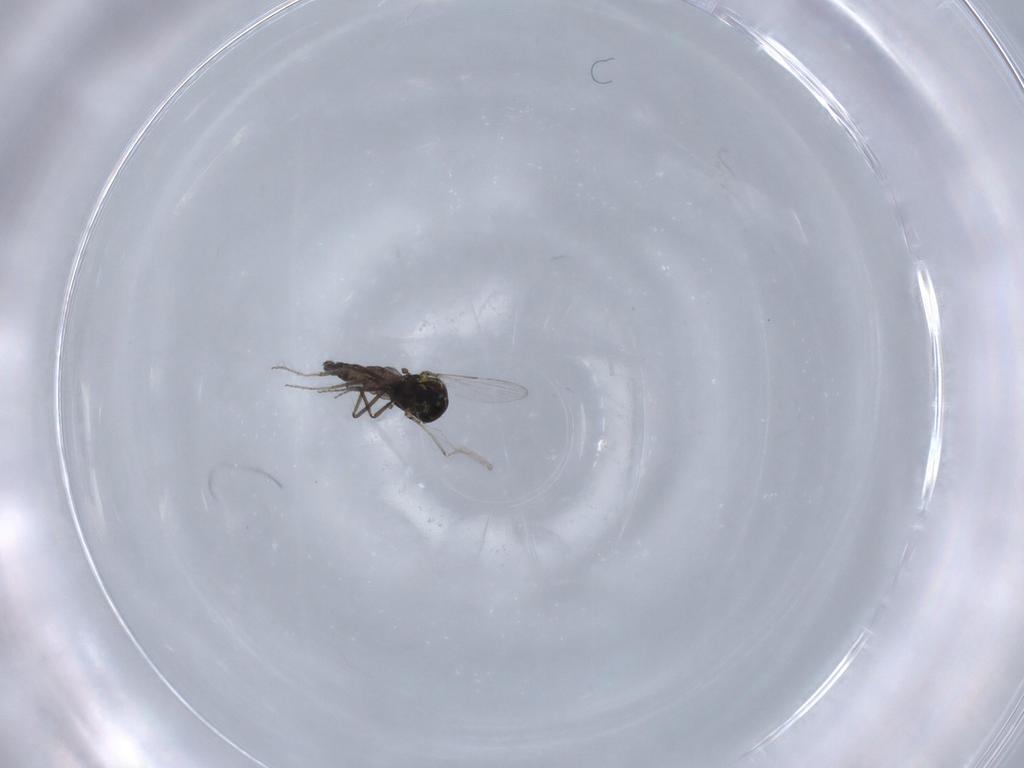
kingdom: Animalia
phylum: Arthropoda
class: Insecta
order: Diptera
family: Ceratopogonidae
